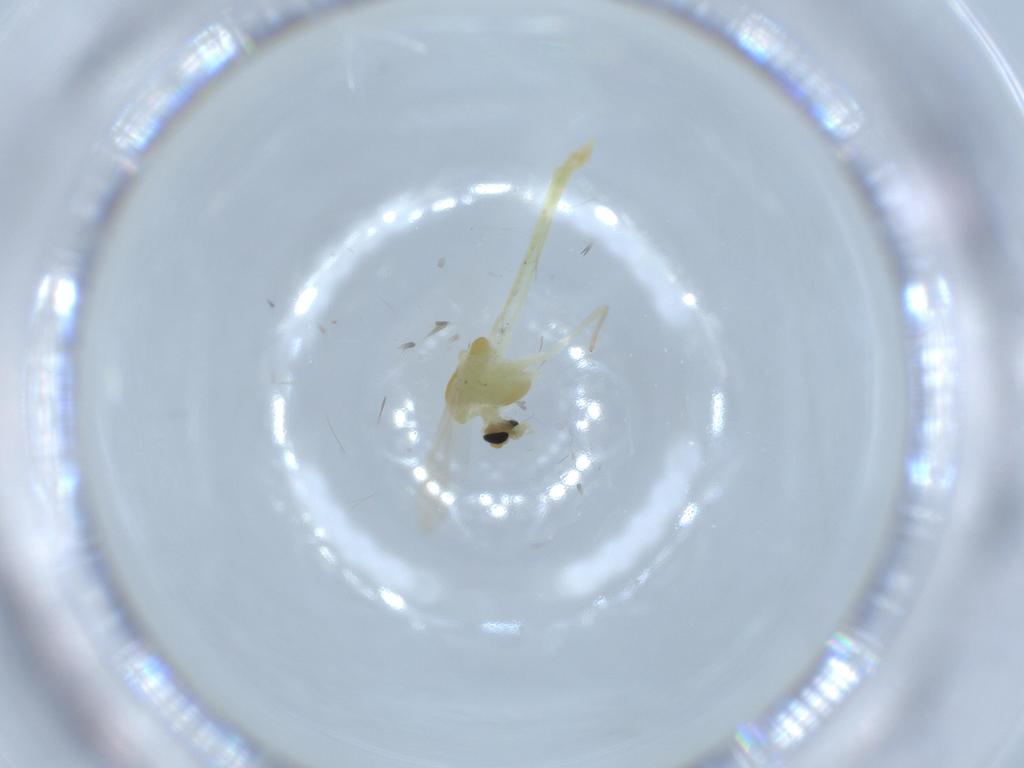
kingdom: Animalia
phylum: Arthropoda
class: Insecta
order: Diptera
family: Chironomidae
